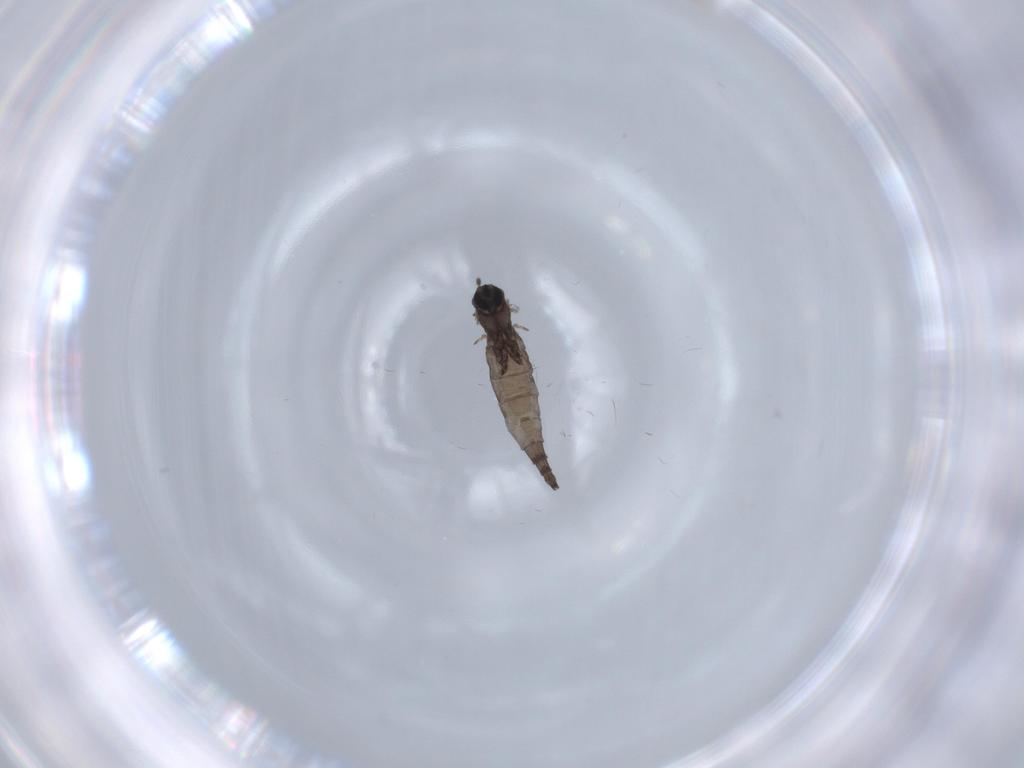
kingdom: Animalia
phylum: Arthropoda
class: Insecta
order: Diptera
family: Sciaridae
